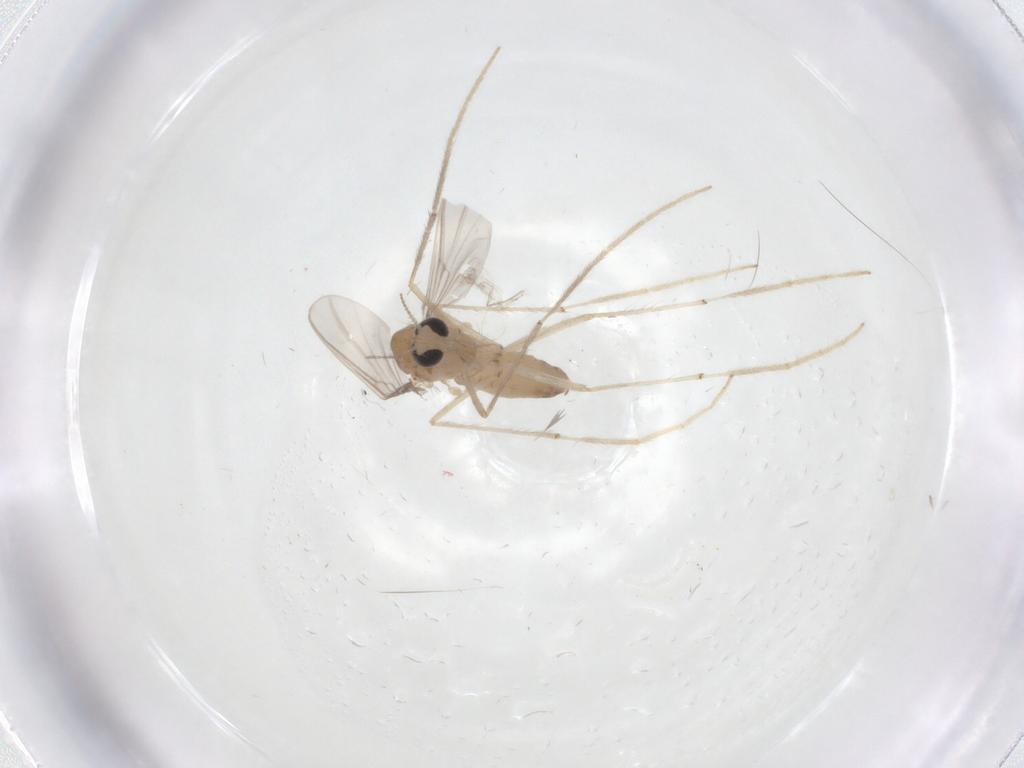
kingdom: Animalia
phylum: Arthropoda
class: Insecta
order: Diptera
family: Chironomidae
